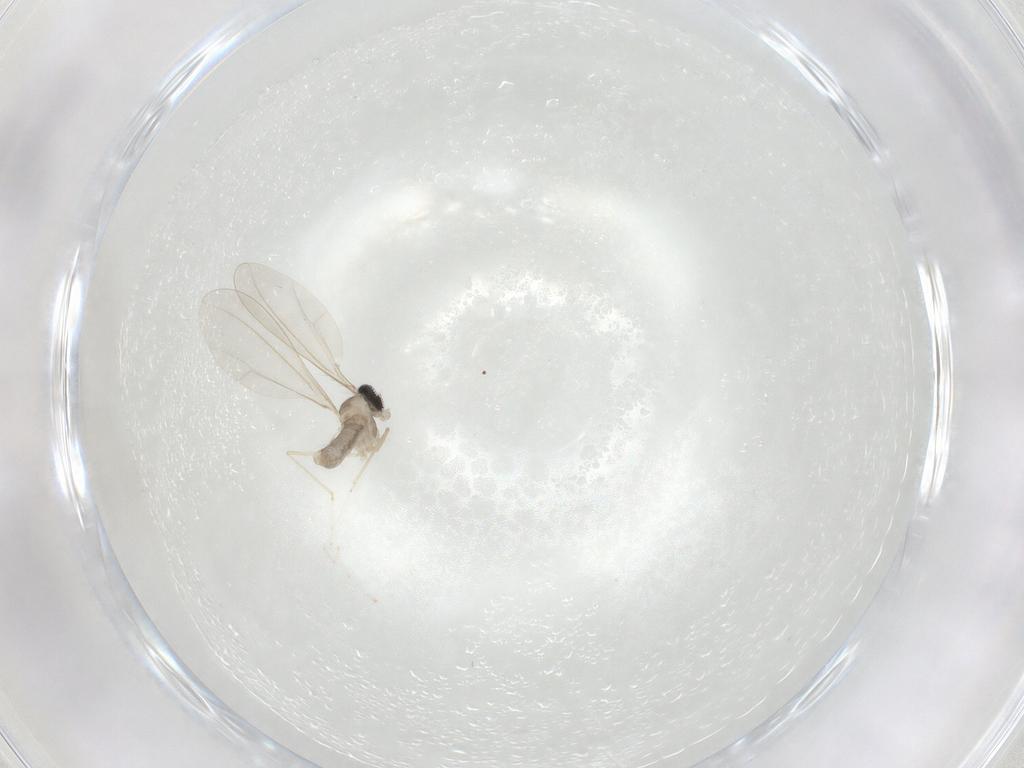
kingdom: Animalia
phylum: Arthropoda
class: Insecta
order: Diptera
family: Cecidomyiidae
